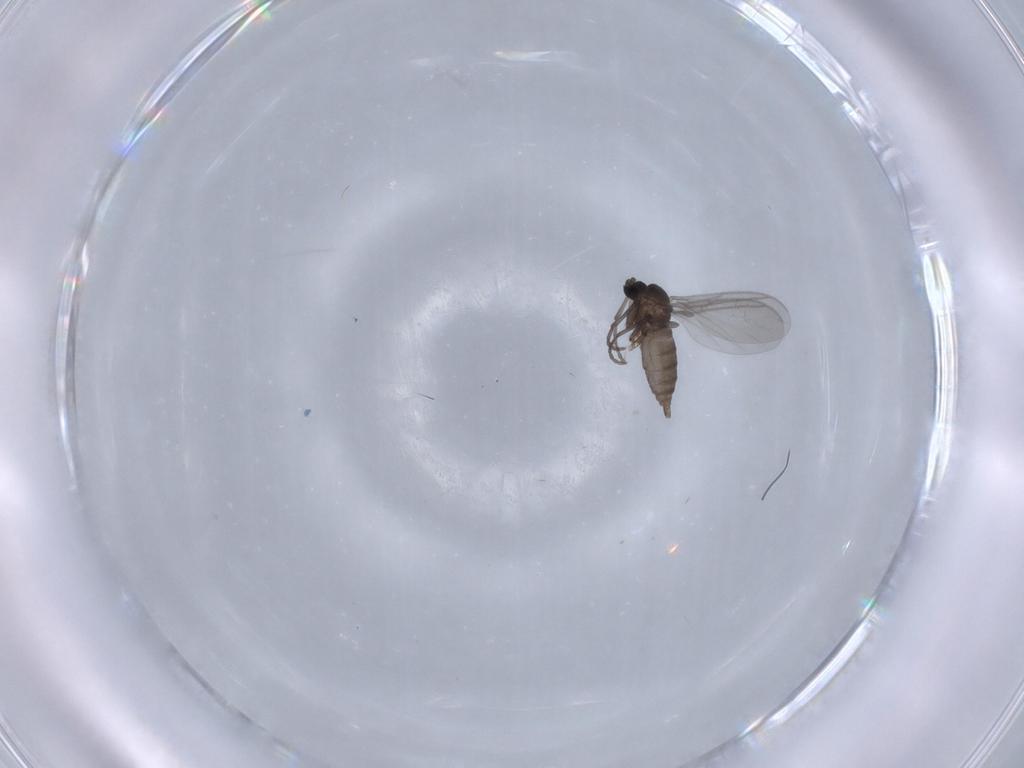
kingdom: Animalia
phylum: Arthropoda
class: Insecta
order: Diptera
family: Sciaridae
